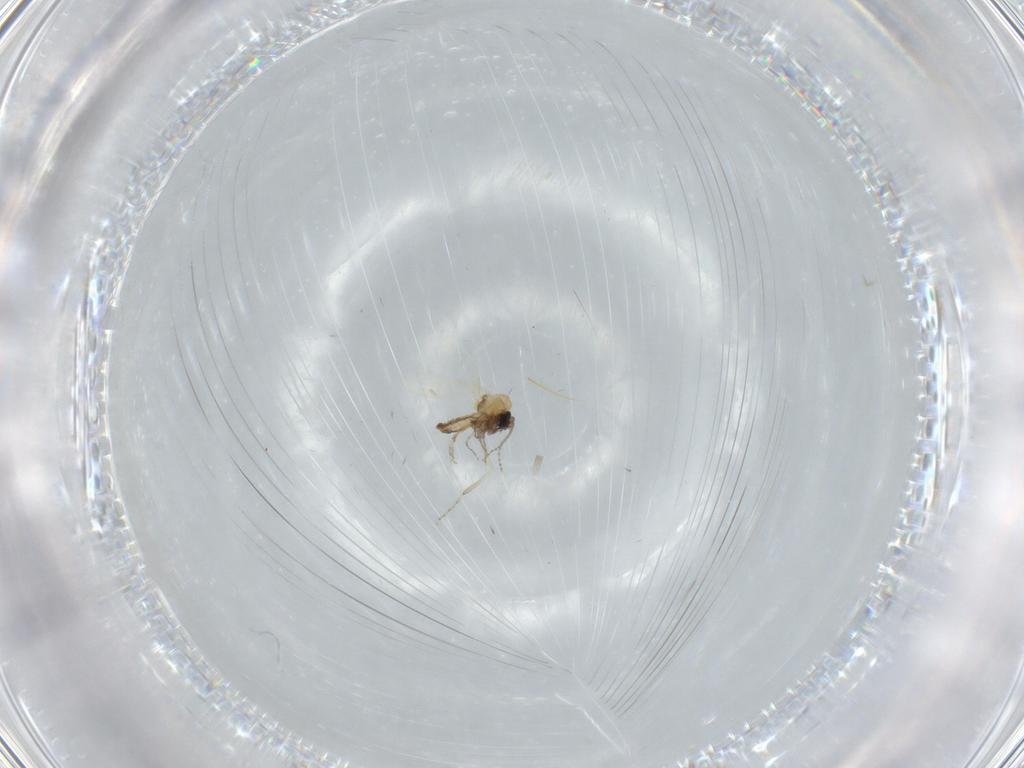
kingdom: Animalia
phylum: Arthropoda
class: Insecta
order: Diptera
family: Ceratopogonidae
